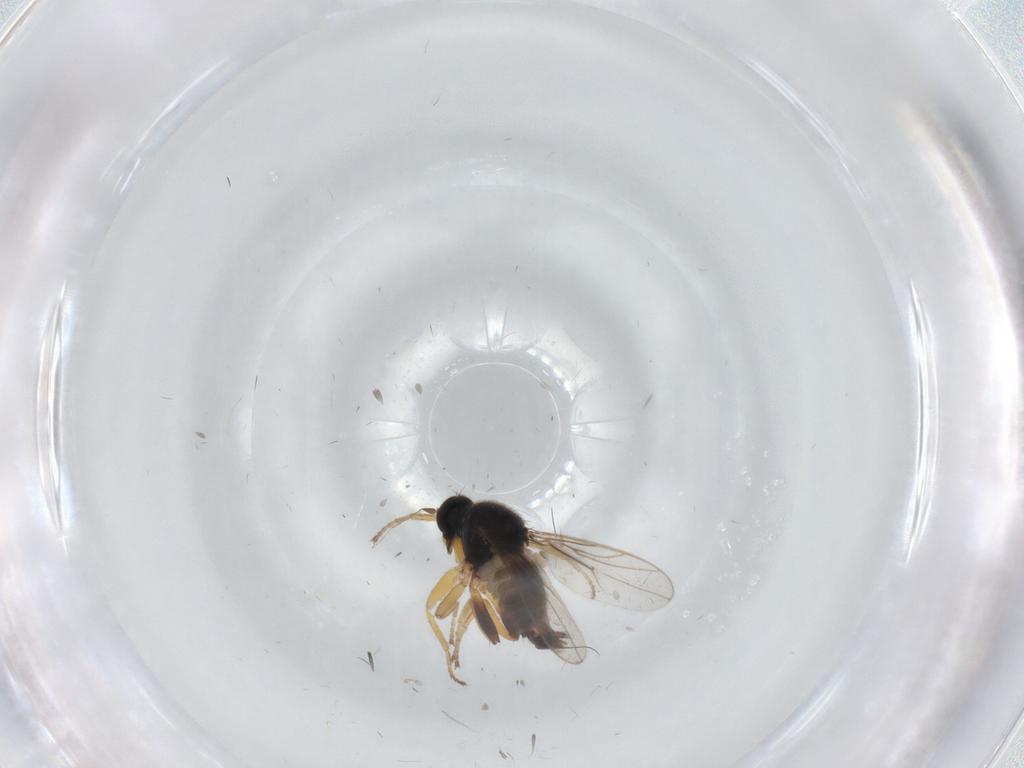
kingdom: Animalia
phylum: Arthropoda
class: Insecta
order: Diptera
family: Hybotidae
